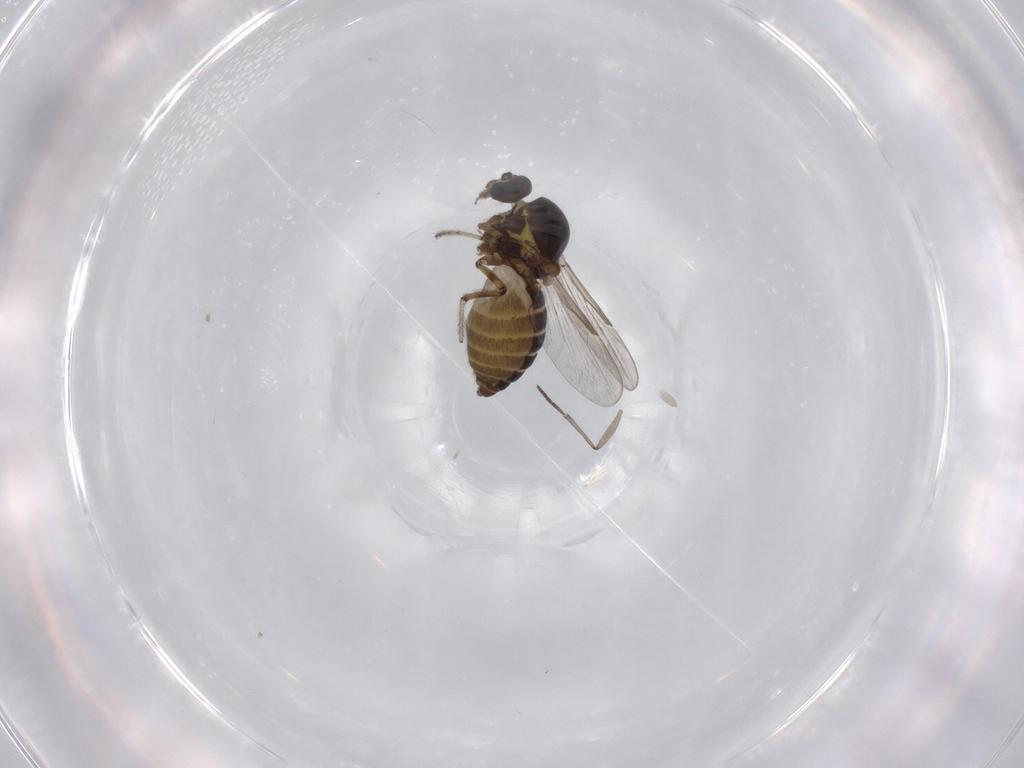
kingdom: Animalia
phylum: Arthropoda
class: Insecta
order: Diptera
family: Ceratopogonidae
